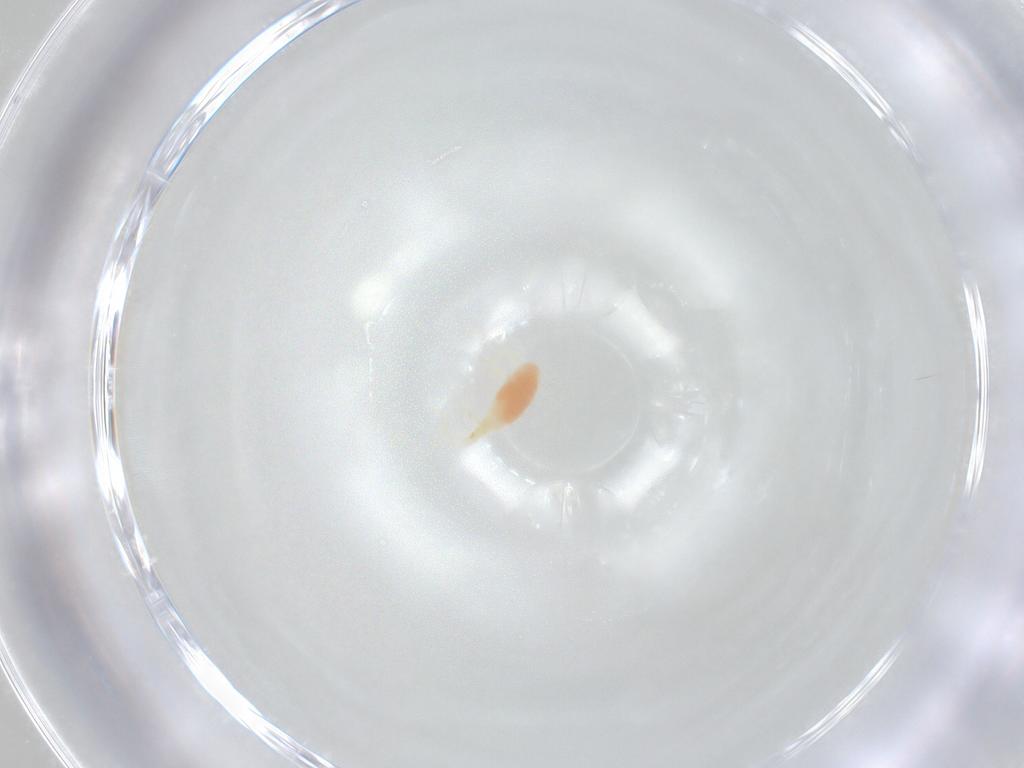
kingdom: Animalia
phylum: Arthropoda
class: Arachnida
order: Trombidiformes
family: Erythraeidae
